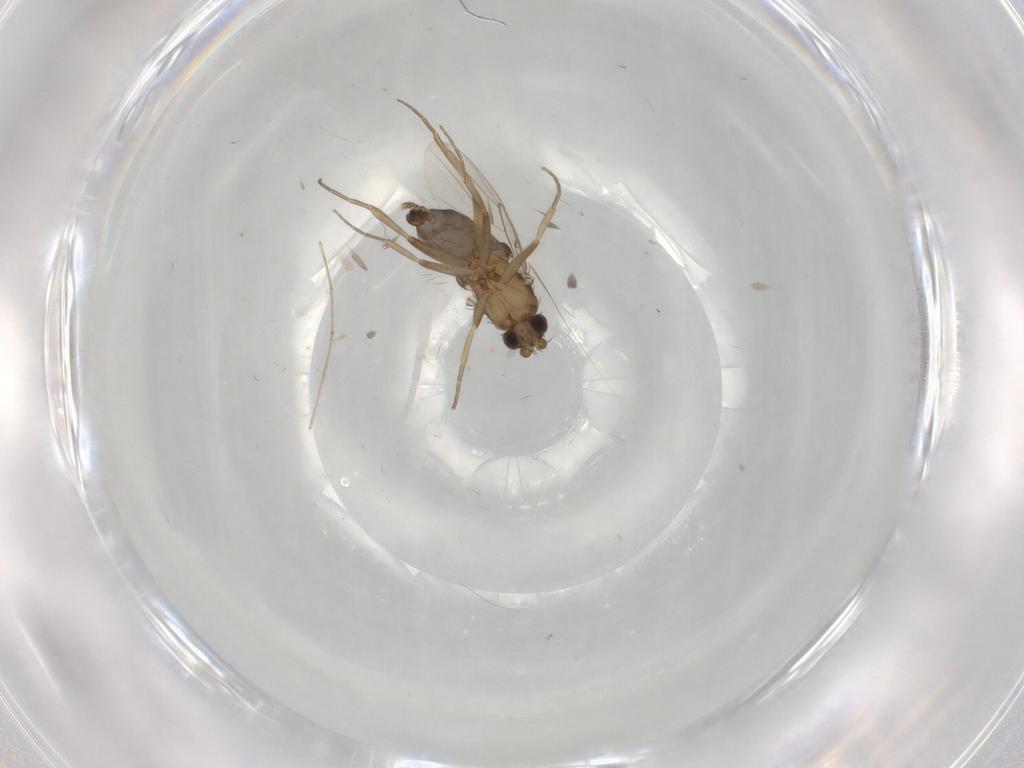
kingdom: Animalia
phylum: Arthropoda
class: Insecta
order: Diptera
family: Phoridae
